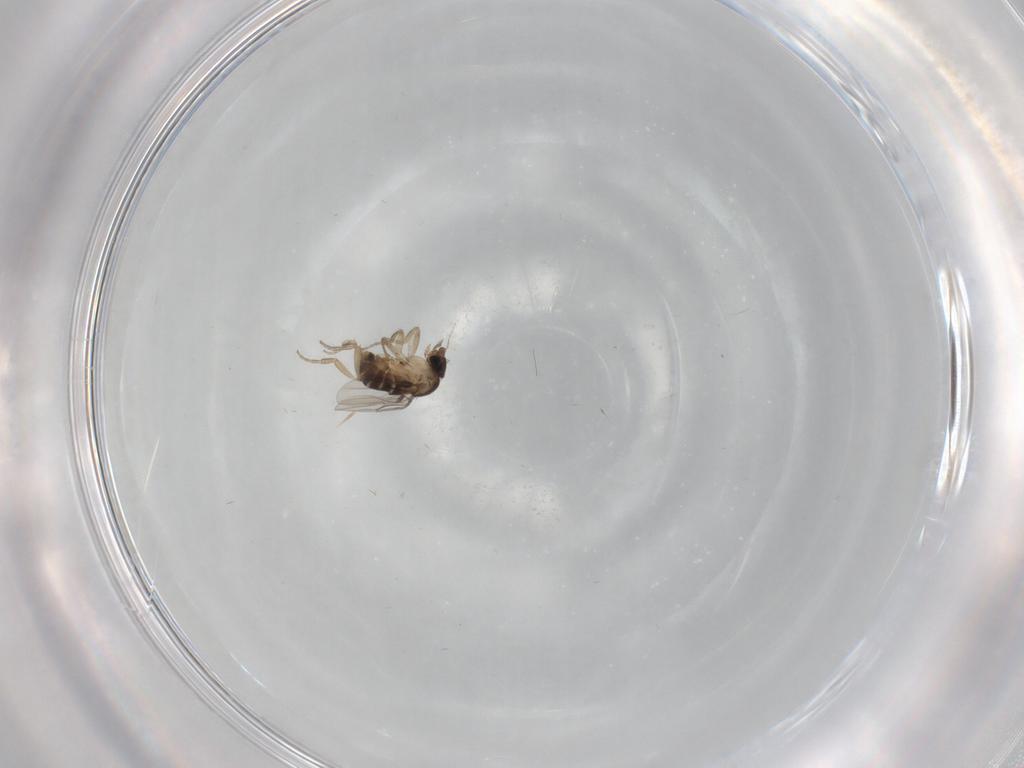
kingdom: Animalia
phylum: Arthropoda
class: Insecta
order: Diptera
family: Phoridae
